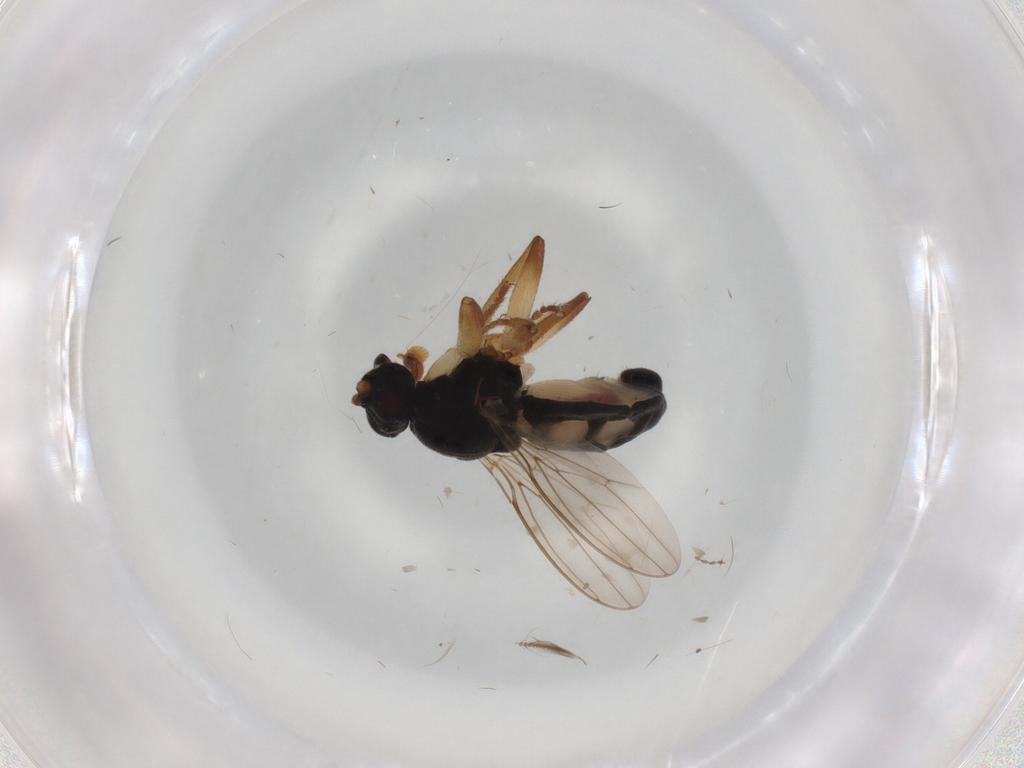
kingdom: Animalia
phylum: Arthropoda
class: Insecta
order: Diptera
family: Sphaeroceridae
